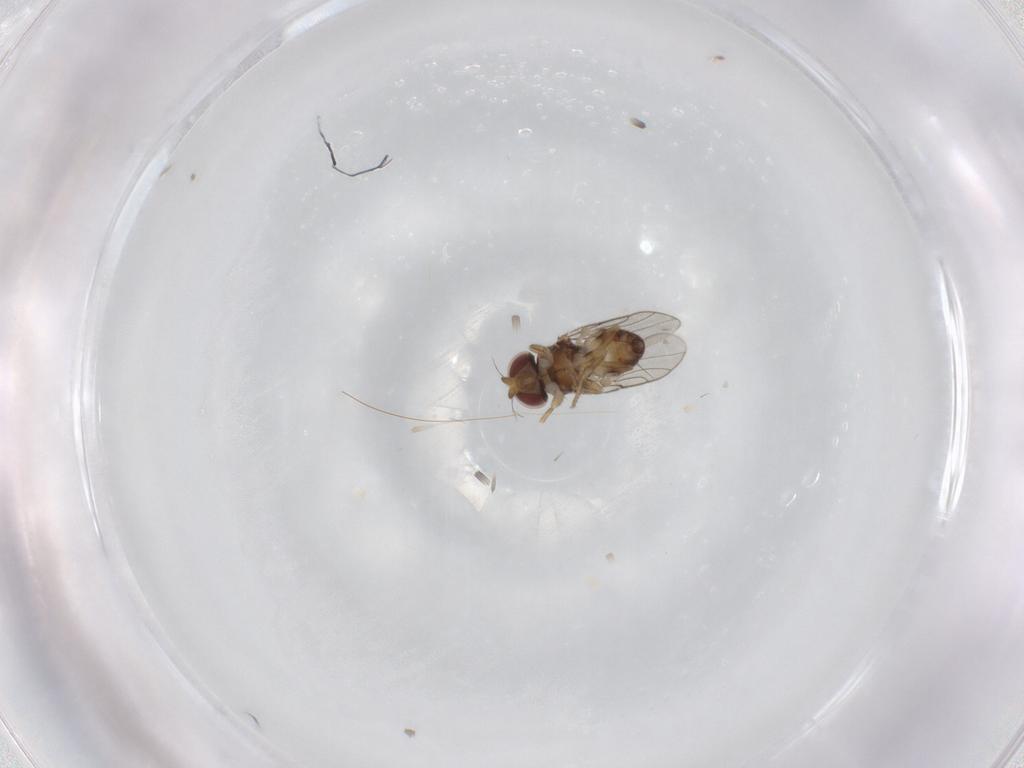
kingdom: Animalia
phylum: Arthropoda
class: Insecta
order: Diptera
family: Chloropidae
